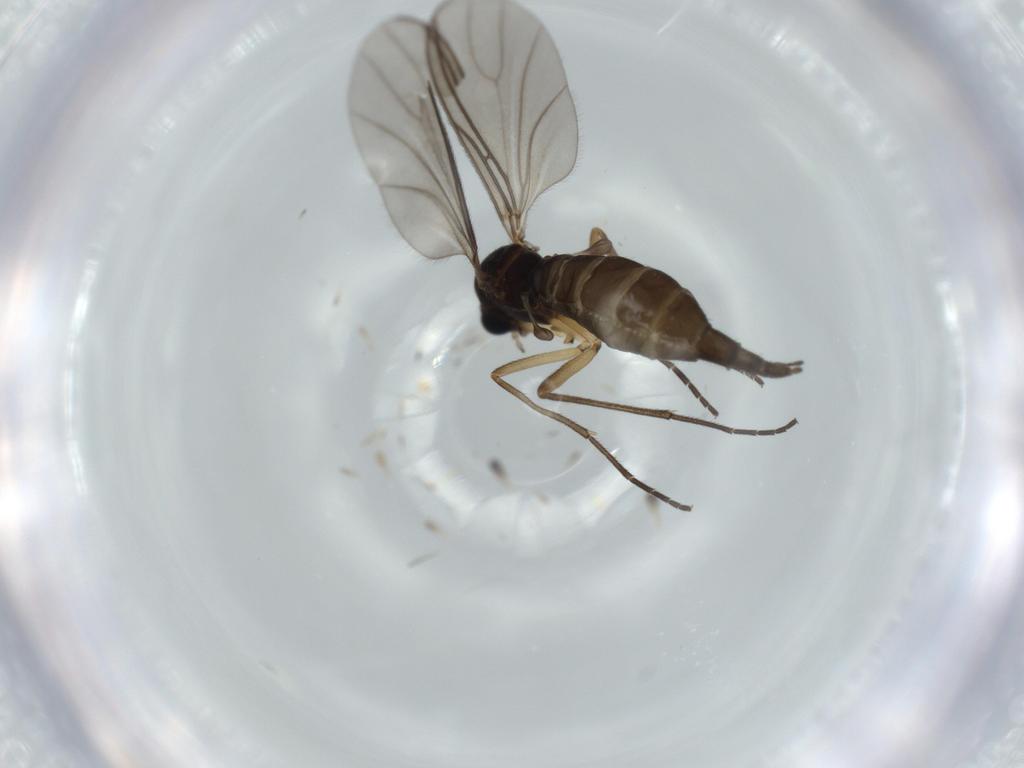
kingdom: Animalia
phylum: Arthropoda
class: Insecta
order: Diptera
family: Sciaridae
